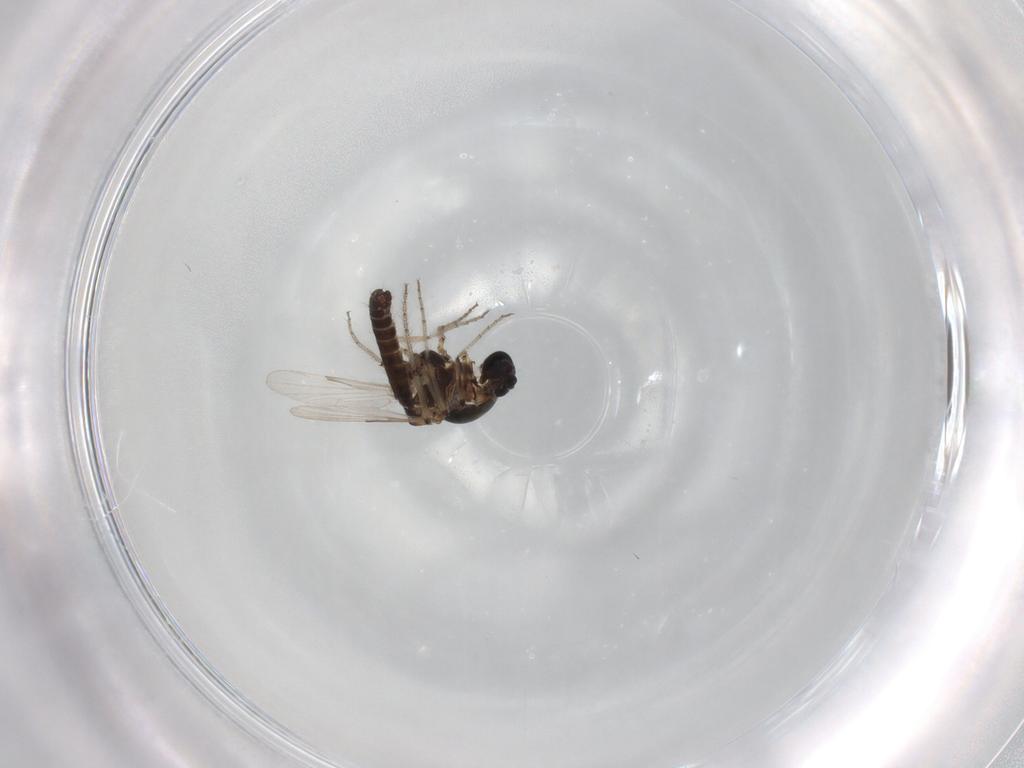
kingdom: Animalia
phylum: Arthropoda
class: Insecta
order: Diptera
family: Ceratopogonidae
